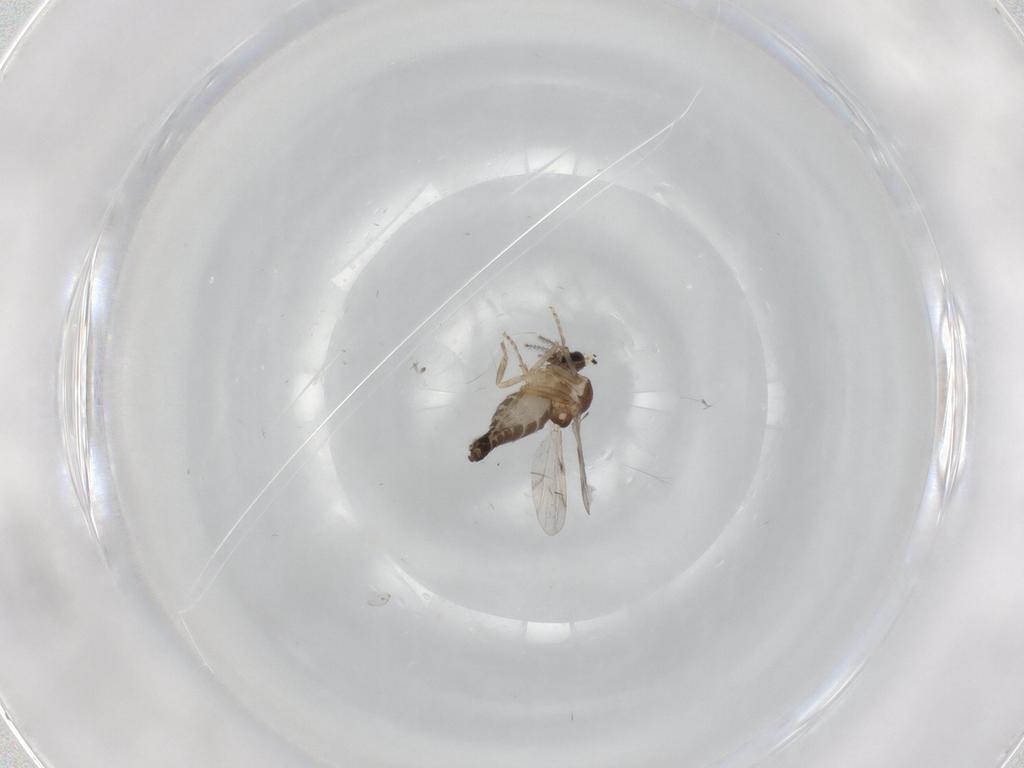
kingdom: Animalia
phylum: Arthropoda
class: Insecta
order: Diptera
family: Ceratopogonidae
